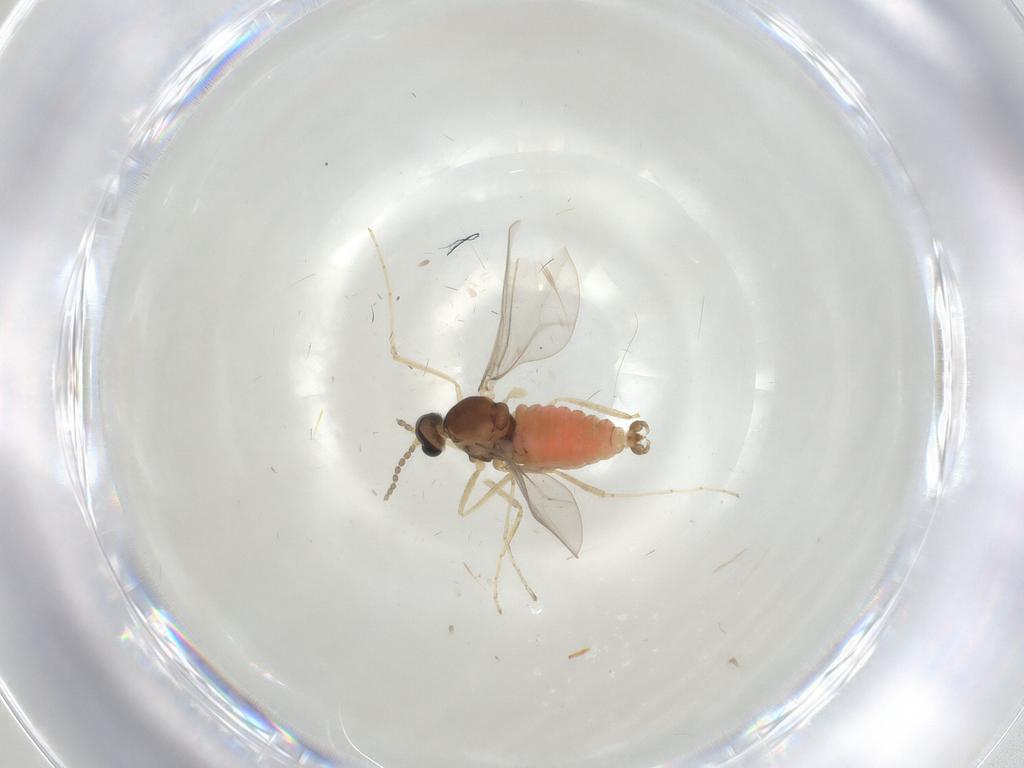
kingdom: Animalia
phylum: Arthropoda
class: Insecta
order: Diptera
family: Cecidomyiidae
